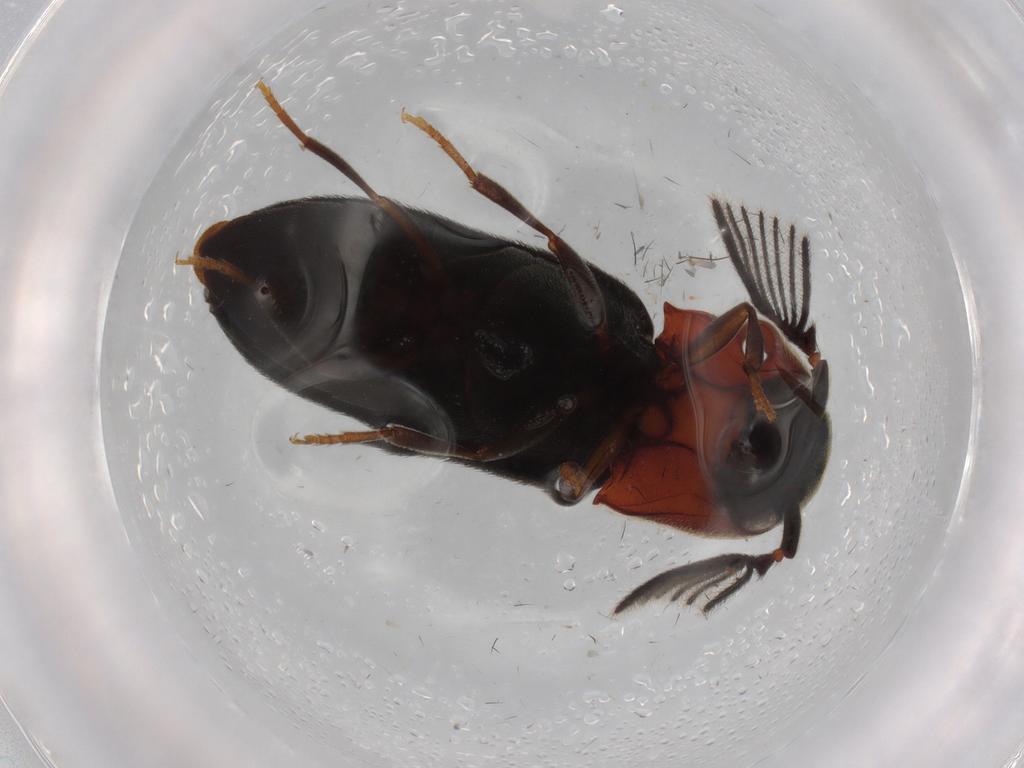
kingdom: Animalia
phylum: Arthropoda
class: Insecta
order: Coleoptera
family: Eucnemidae
